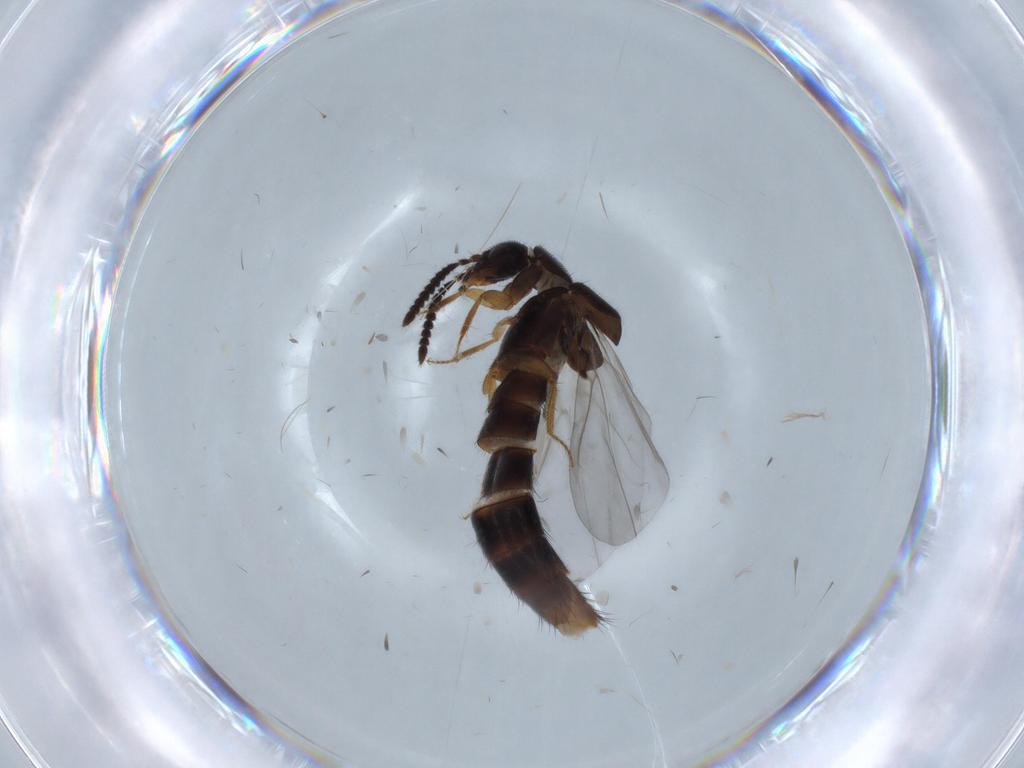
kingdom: Animalia
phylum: Arthropoda
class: Insecta
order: Coleoptera
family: Staphylinidae
